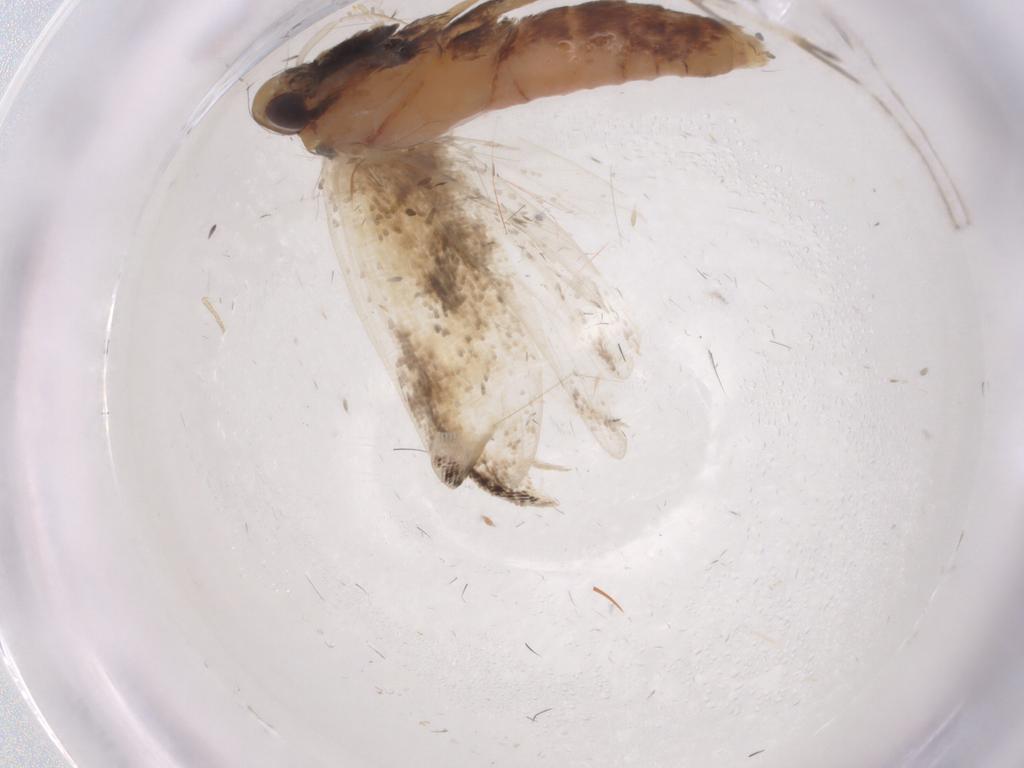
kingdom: Animalia
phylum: Arthropoda
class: Insecta
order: Lepidoptera
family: Gelechiidae
